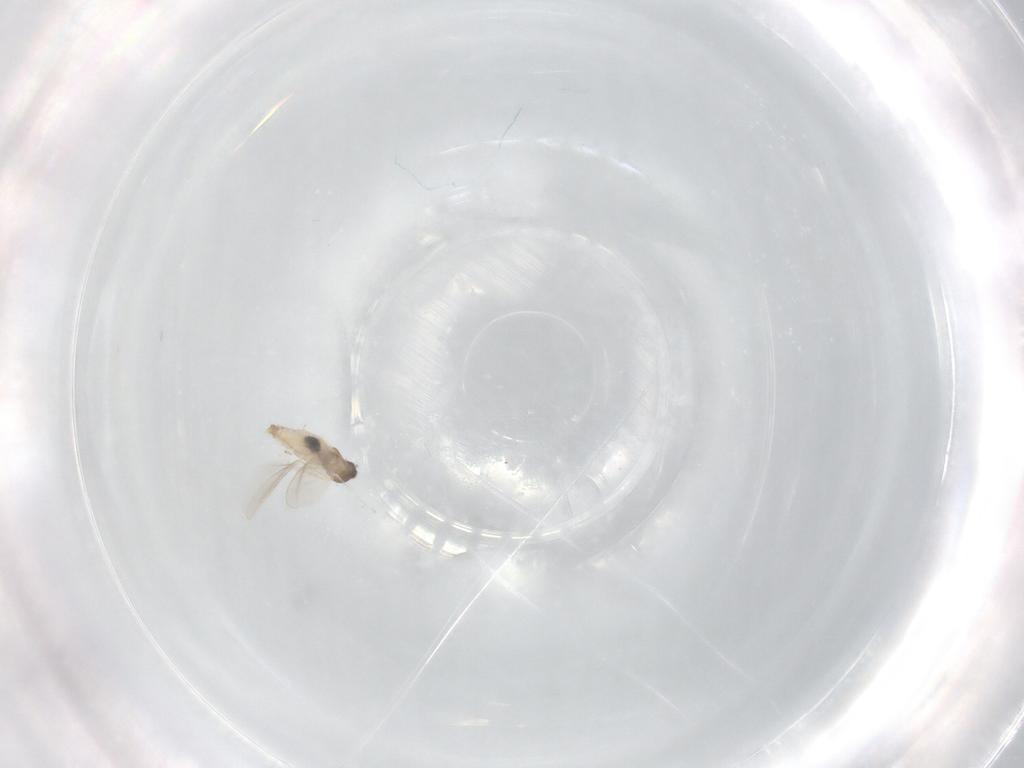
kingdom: Animalia
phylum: Arthropoda
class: Insecta
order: Diptera
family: Cecidomyiidae
